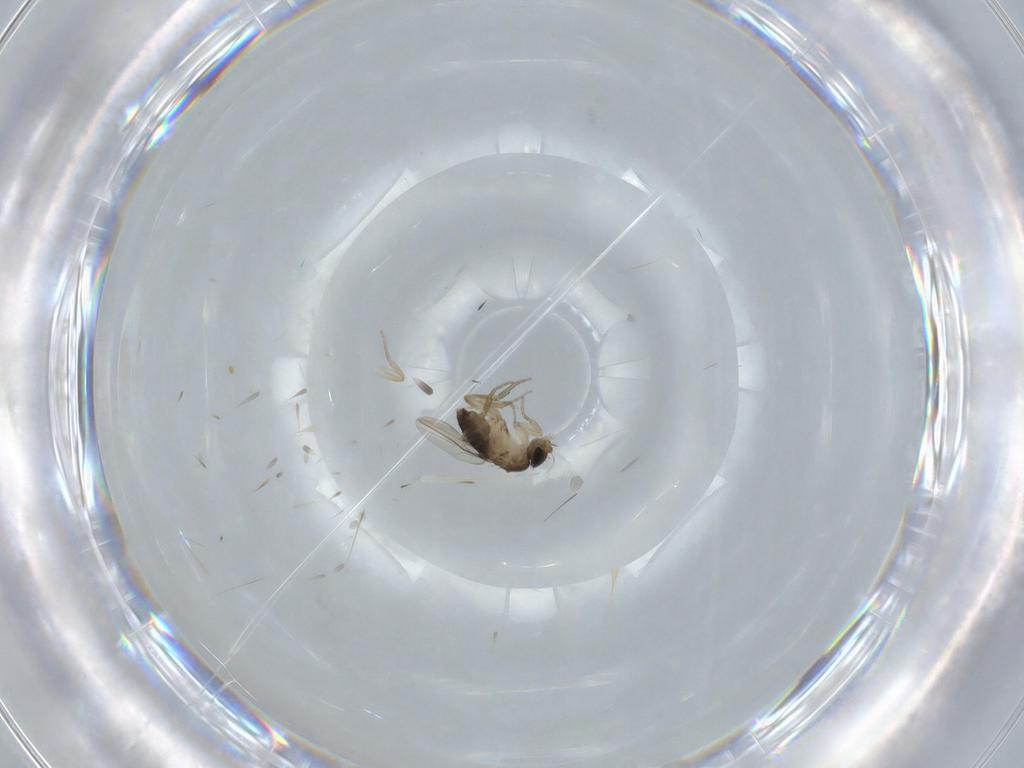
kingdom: Animalia
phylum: Arthropoda
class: Insecta
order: Diptera
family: Phoridae
